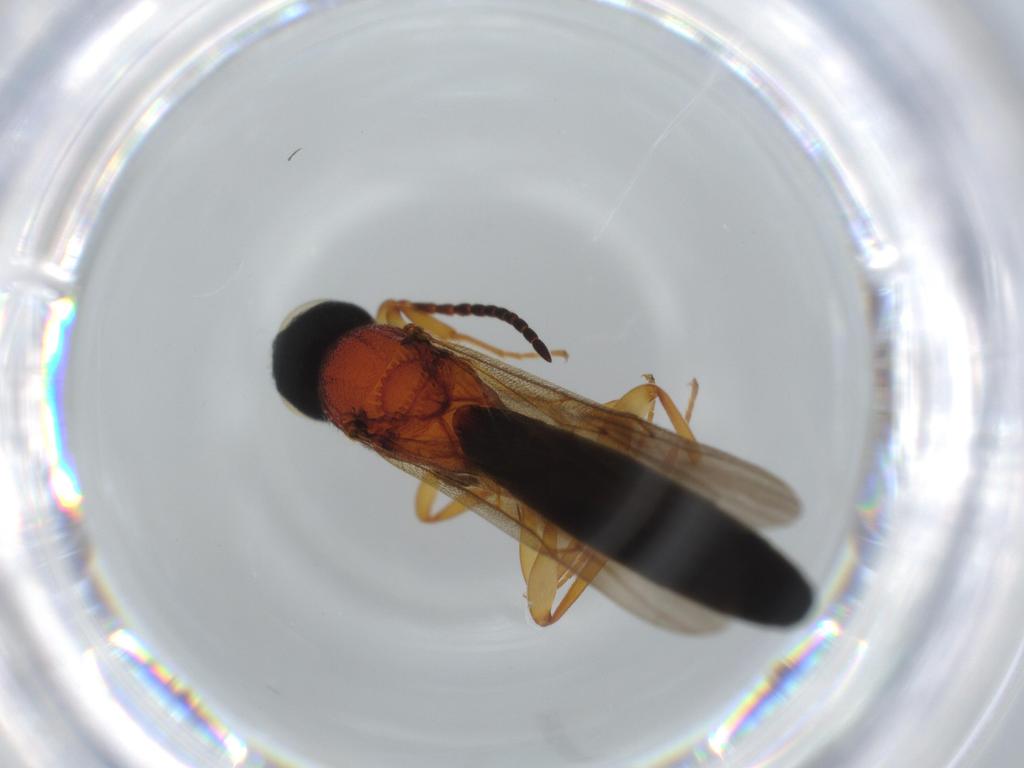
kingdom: Animalia
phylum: Arthropoda
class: Insecta
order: Hymenoptera
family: Scelionidae
